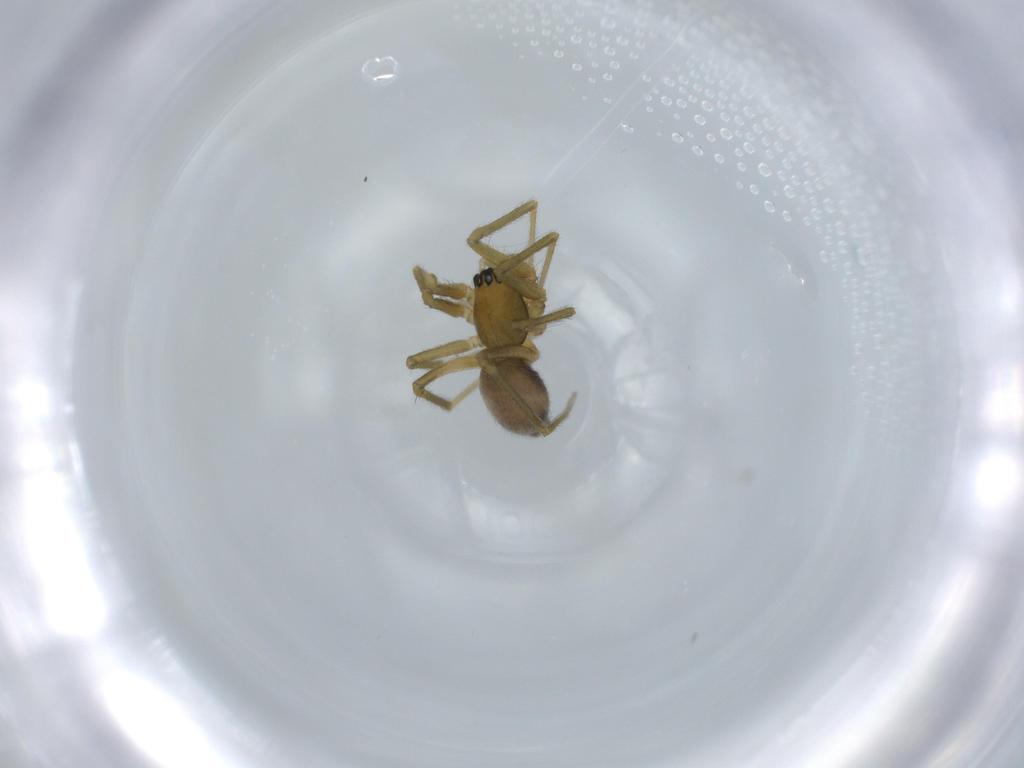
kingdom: Animalia
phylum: Arthropoda
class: Arachnida
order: Araneae
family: Linyphiidae
